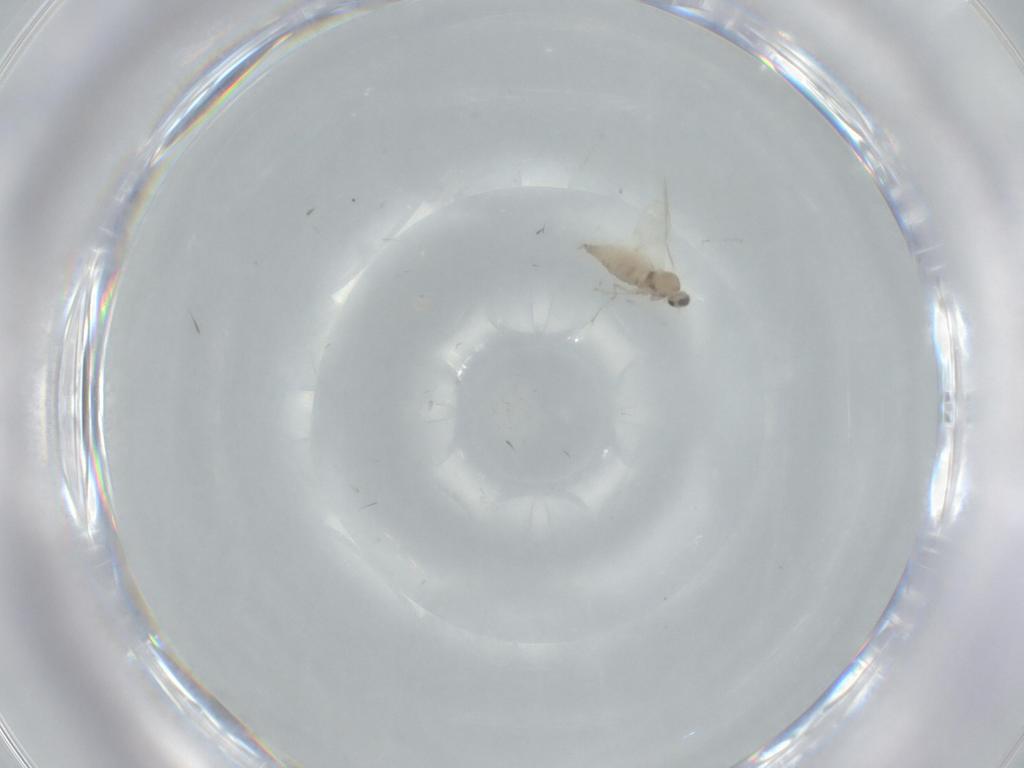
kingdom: Animalia
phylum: Arthropoda
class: Insecta
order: Diptera
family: Cecidomyiidae
